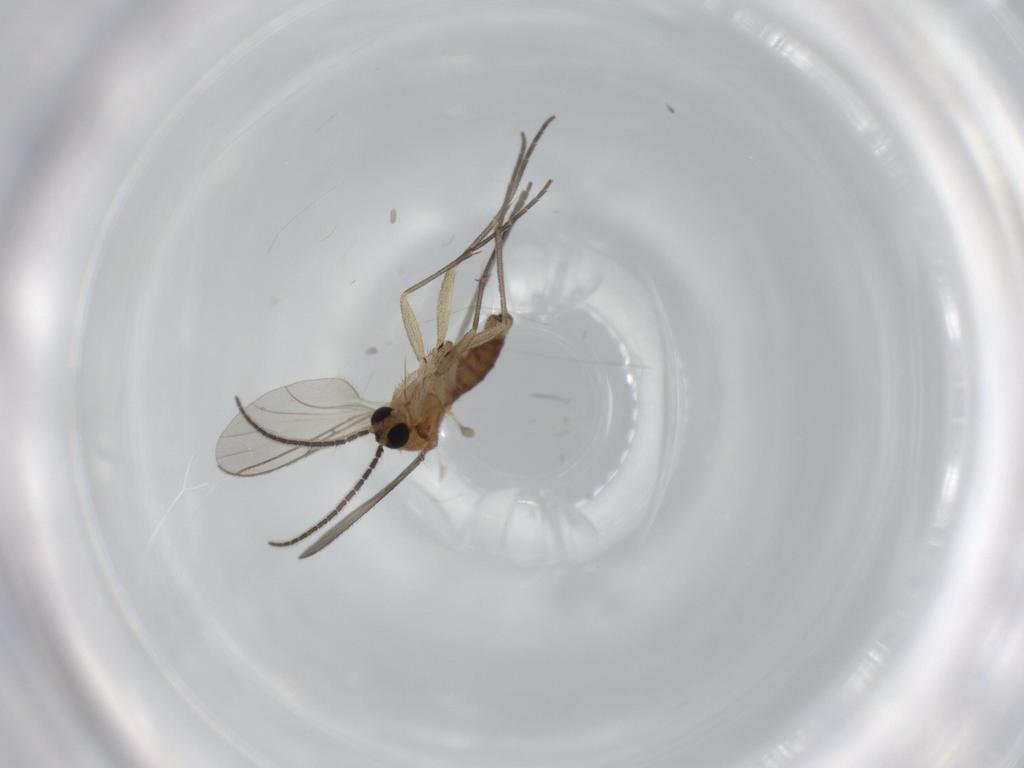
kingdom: Animalia
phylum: Arthropoda
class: Insecta
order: Diptera
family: Sciaridae
